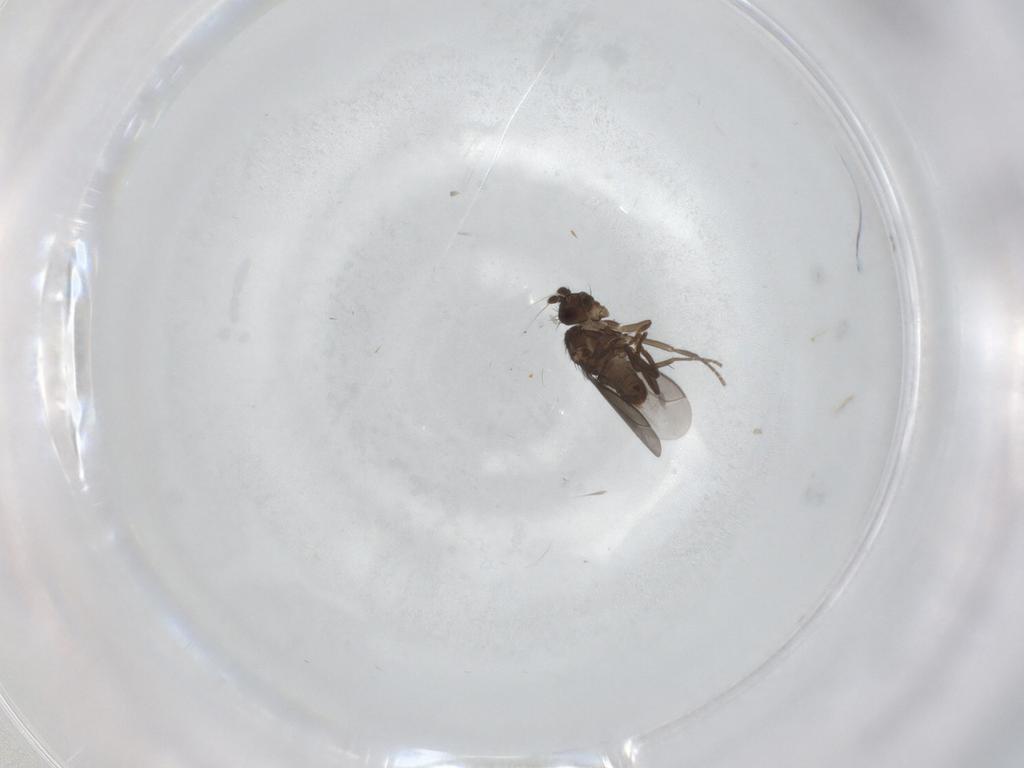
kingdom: Animalia
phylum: Arthropoda
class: Insecta
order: Diptera
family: Sphaeroceridae
